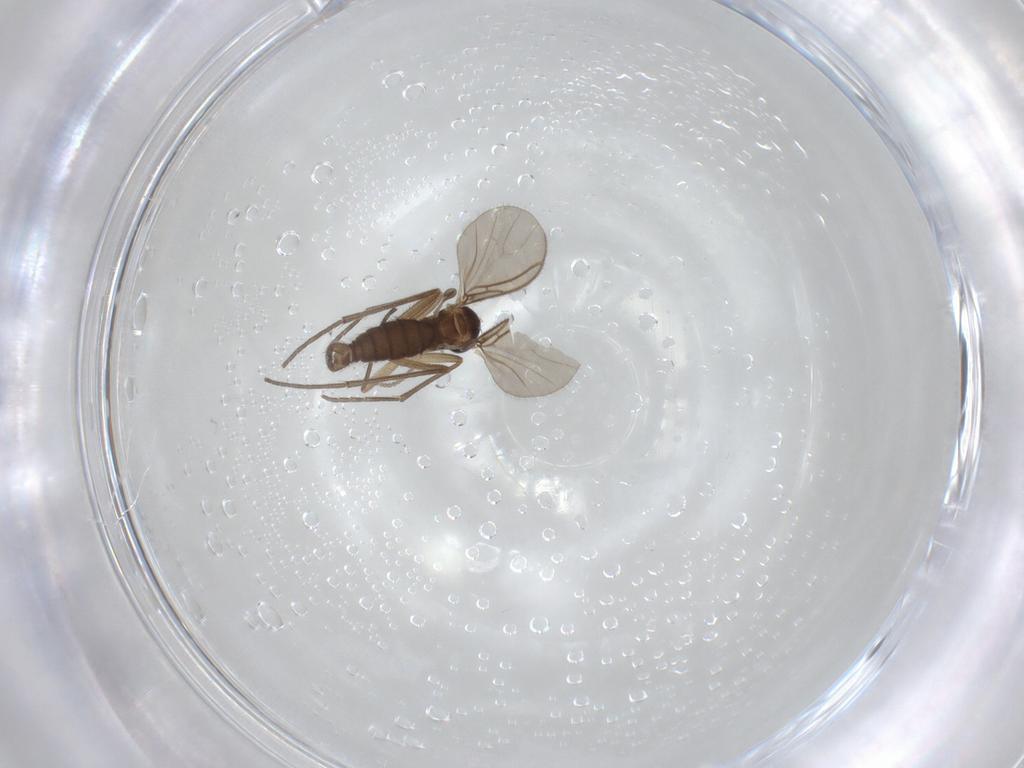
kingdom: Animalia
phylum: Arthropoda
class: Insecta
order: Diptera
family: Cecidomyiidae
